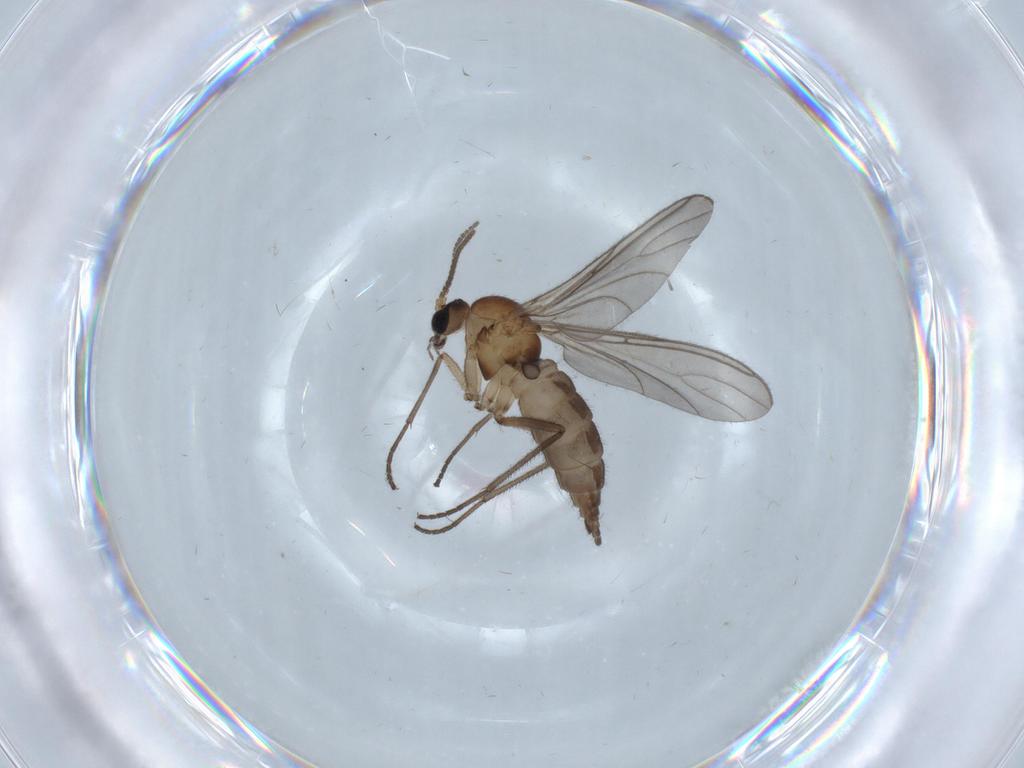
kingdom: Animalia
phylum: Arthropoda
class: Insecta
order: Diptera
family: Sciaridae
